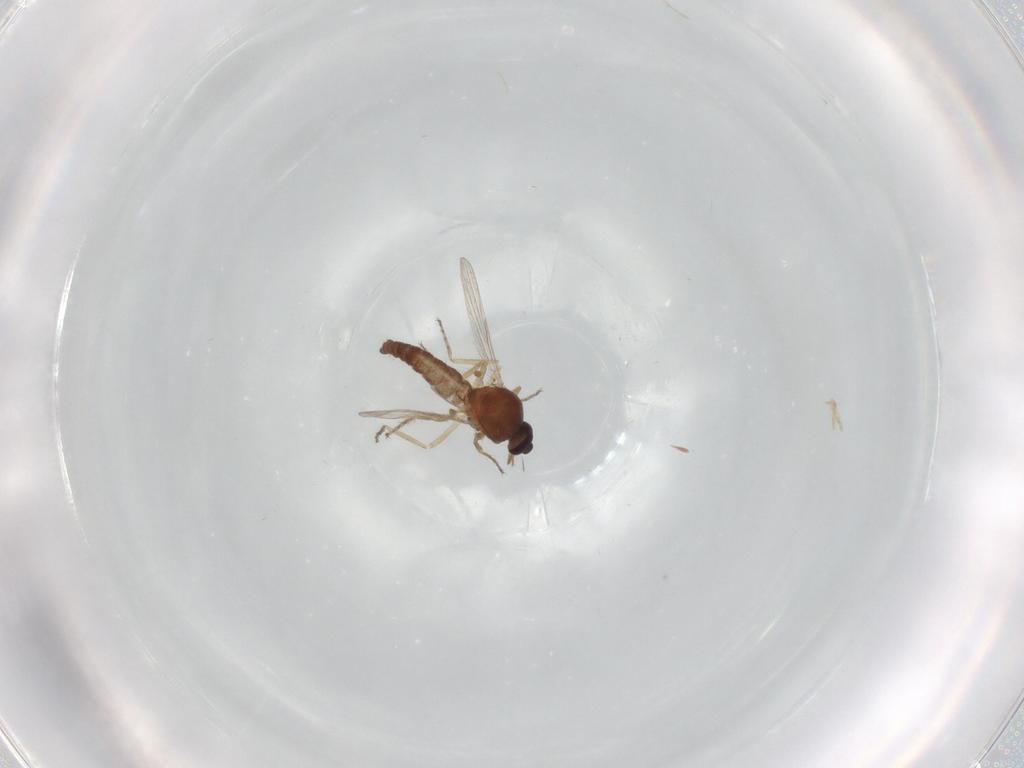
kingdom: Animalia
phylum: Arthropoda
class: Insecta
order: Diptera
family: Ceratopogonidae
